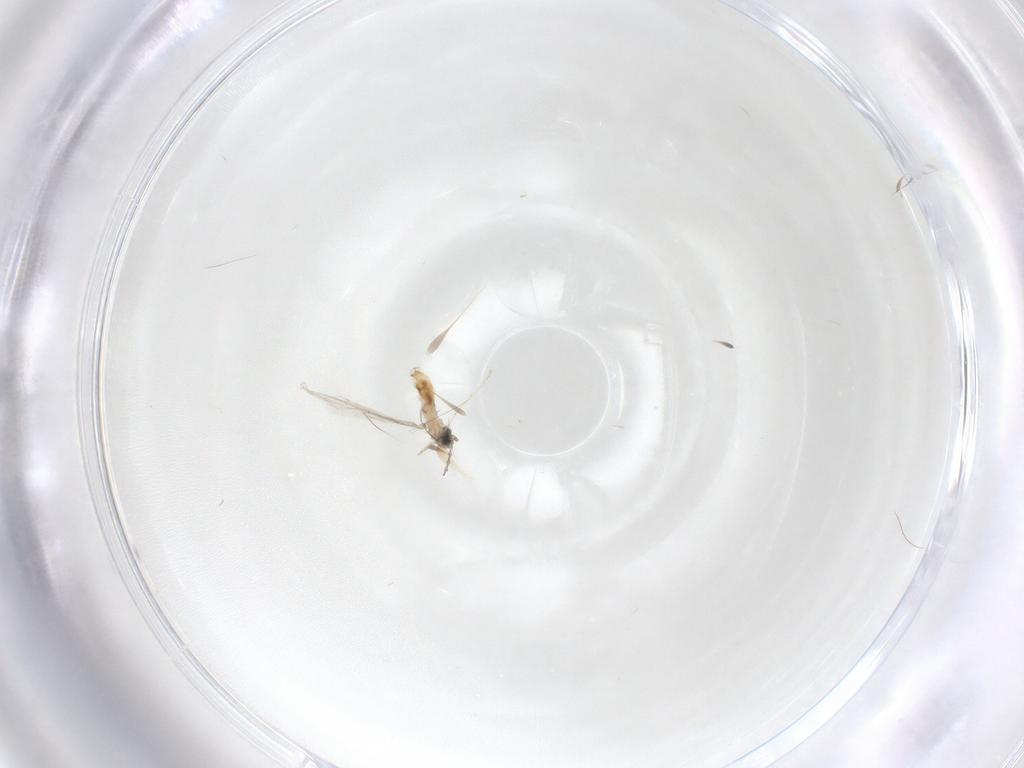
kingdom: Animalia
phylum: Arthropoda
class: Insecta
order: Diptera
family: Cecidomyiidae
